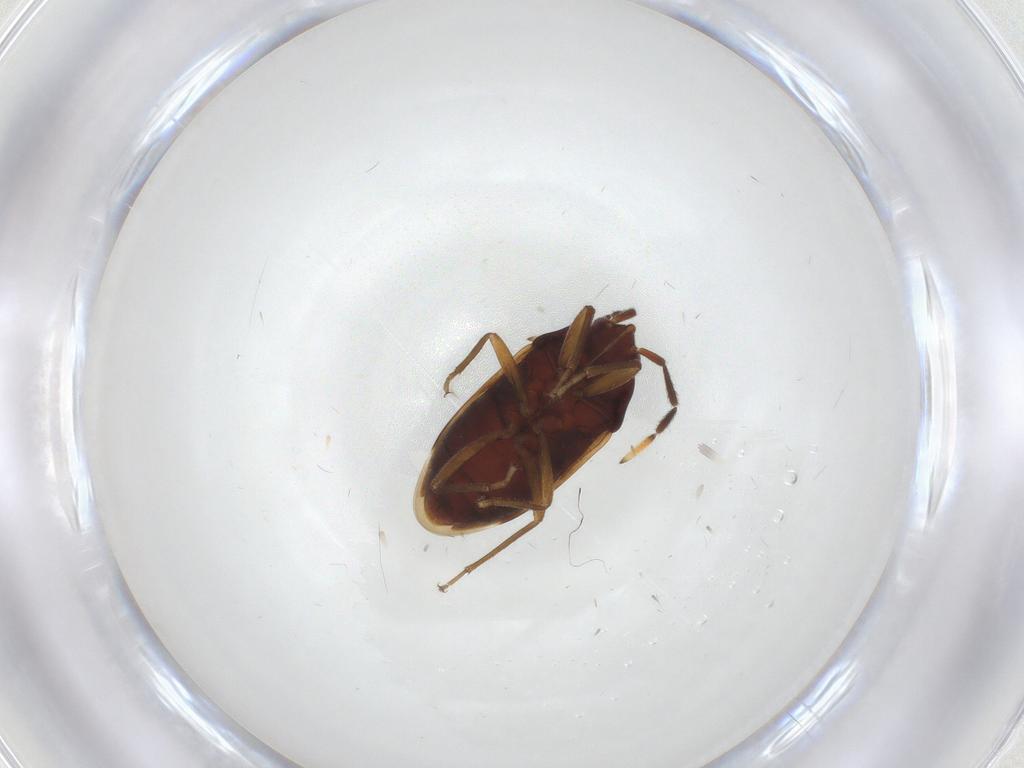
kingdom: Animalia
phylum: Arthropoda
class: Insecta
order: Hemiptera
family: Rhyparochromidae
